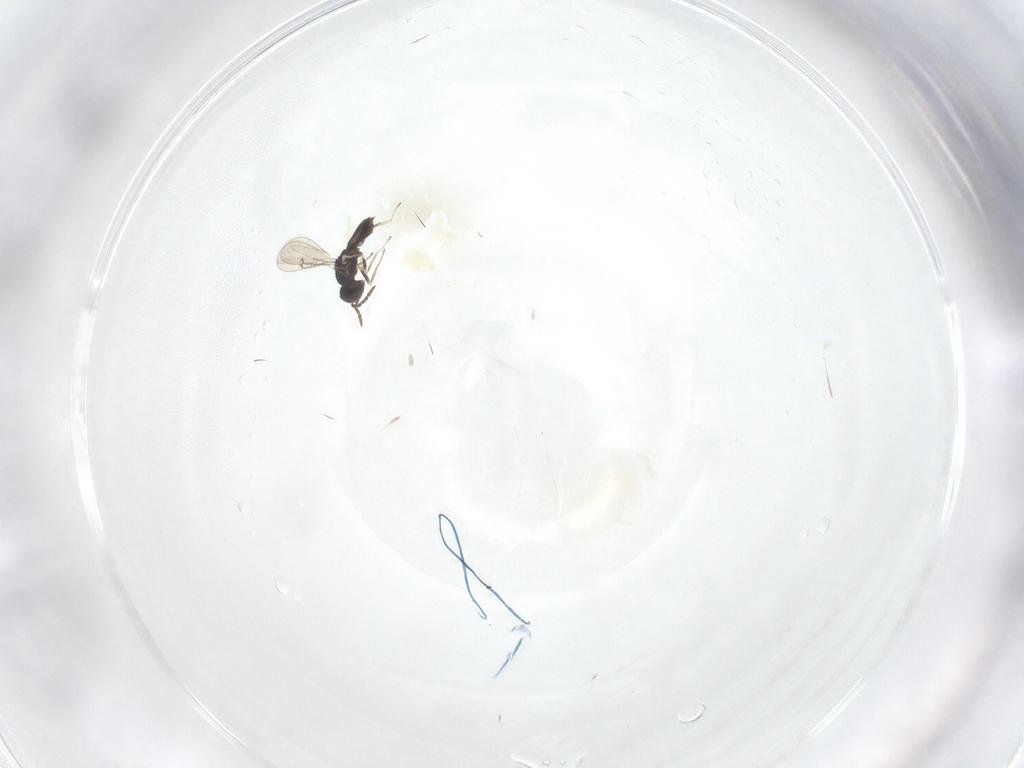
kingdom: Animalia
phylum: Arthropoda
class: Insecta
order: Hymenoptera
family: Eulophidae
